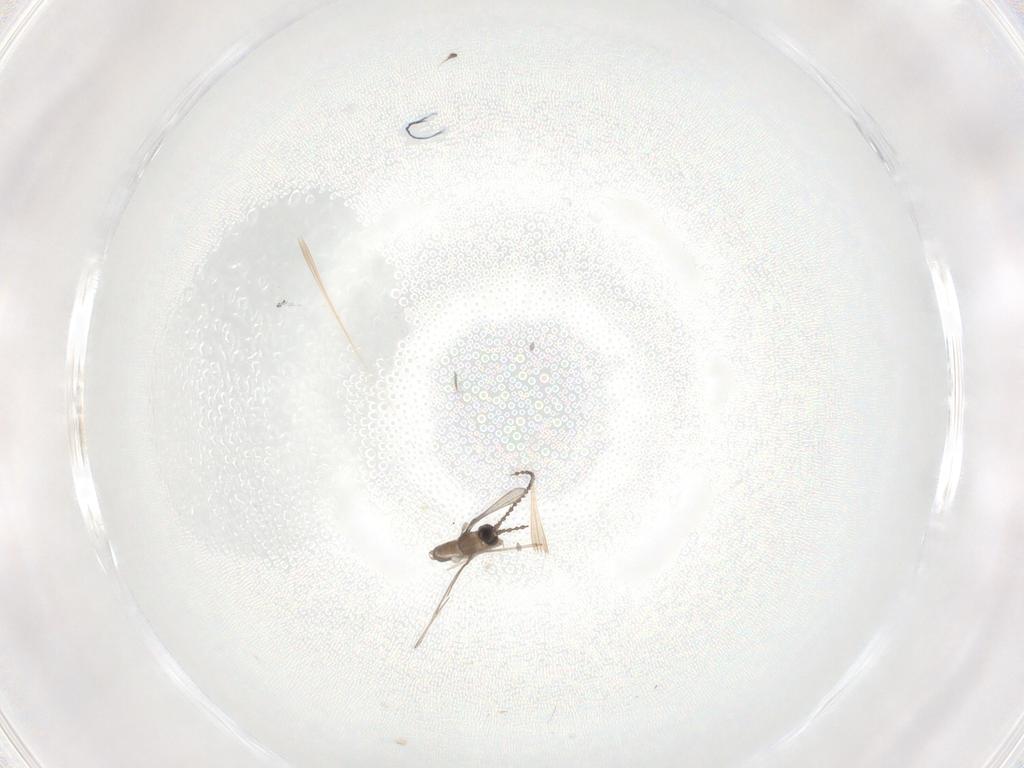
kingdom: Animalia
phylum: Arthropoda
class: Insecta
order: Diptera
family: Cecidomyiidae
